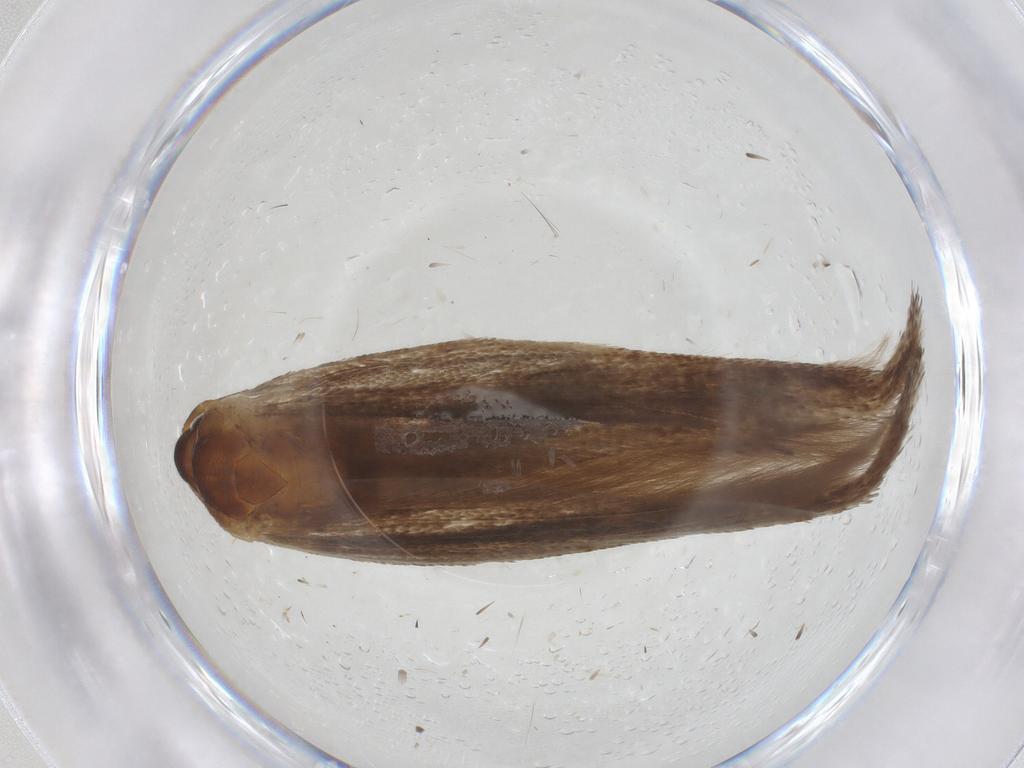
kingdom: Animalia
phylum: Arthropoda
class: Insecta
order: Lepidoptera
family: Gelechiidae
